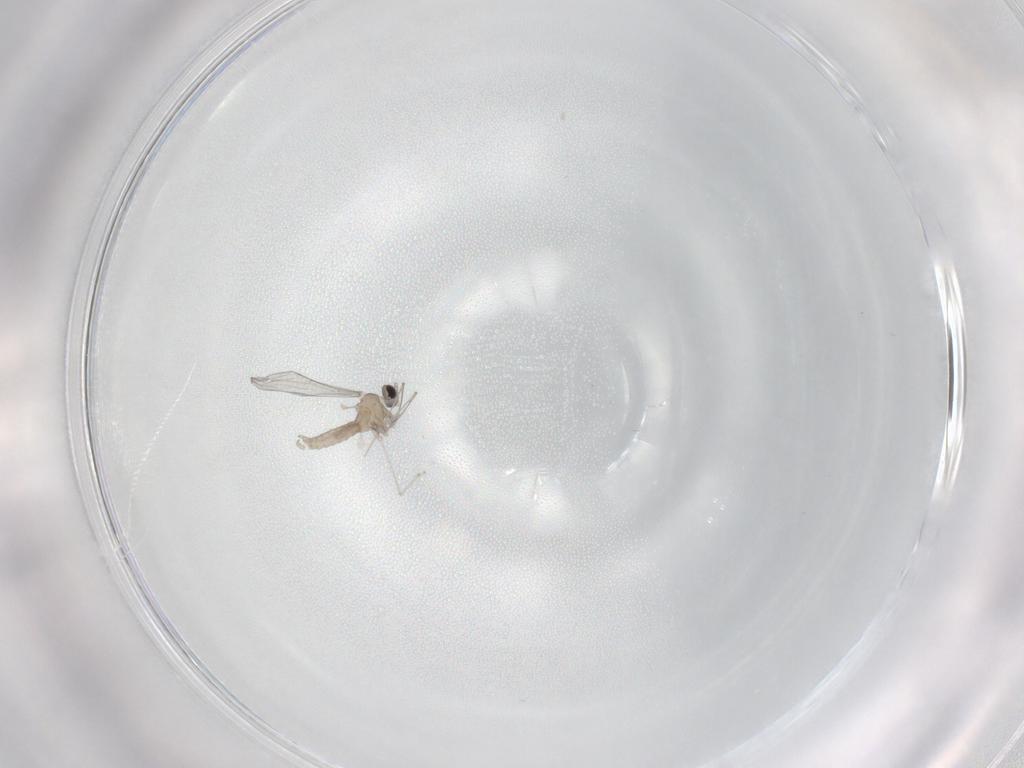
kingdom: Animalia
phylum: Arthropoda
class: Insecta
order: Diptera
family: Cecidomyiidae
